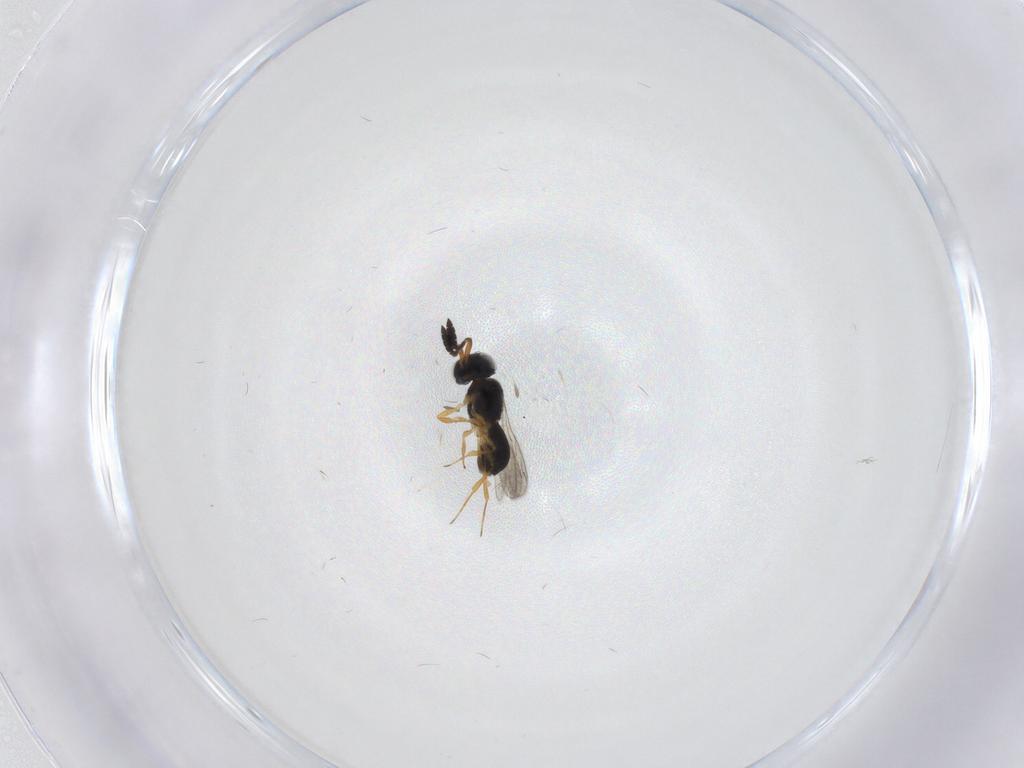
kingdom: Animalia
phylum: Arthropoda
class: Insecta
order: Hymenoptera
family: Scelionidae
